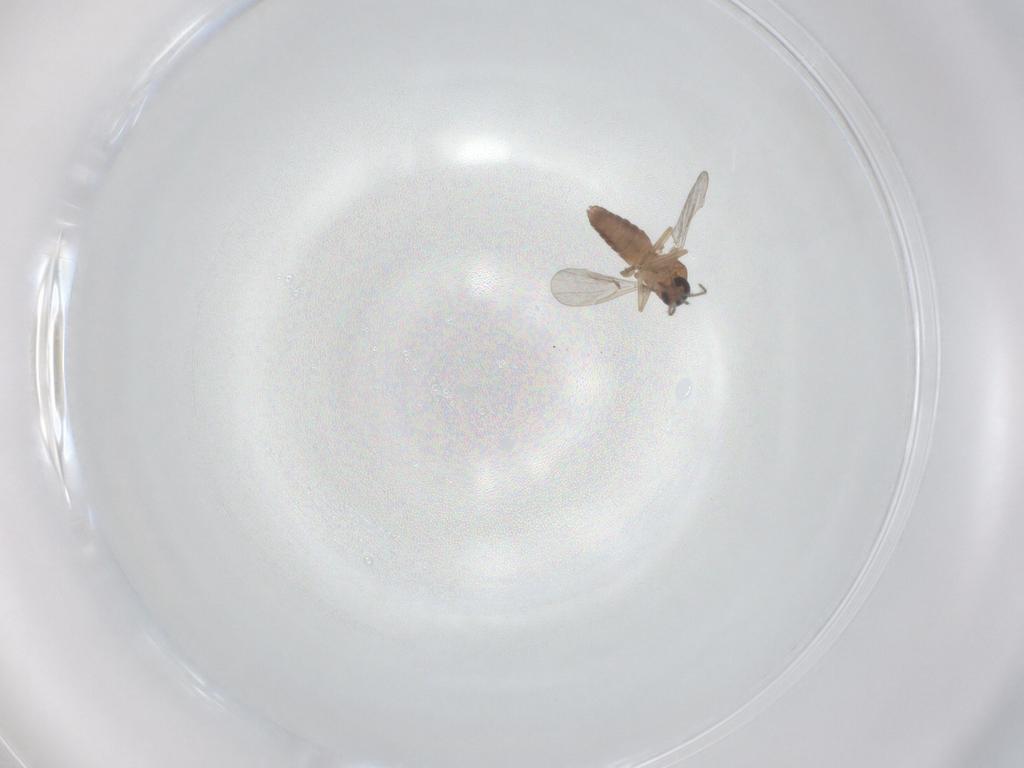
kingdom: Animalia
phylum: Arthropoda
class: Insecta
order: Diptera
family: Ceratopogonidae
